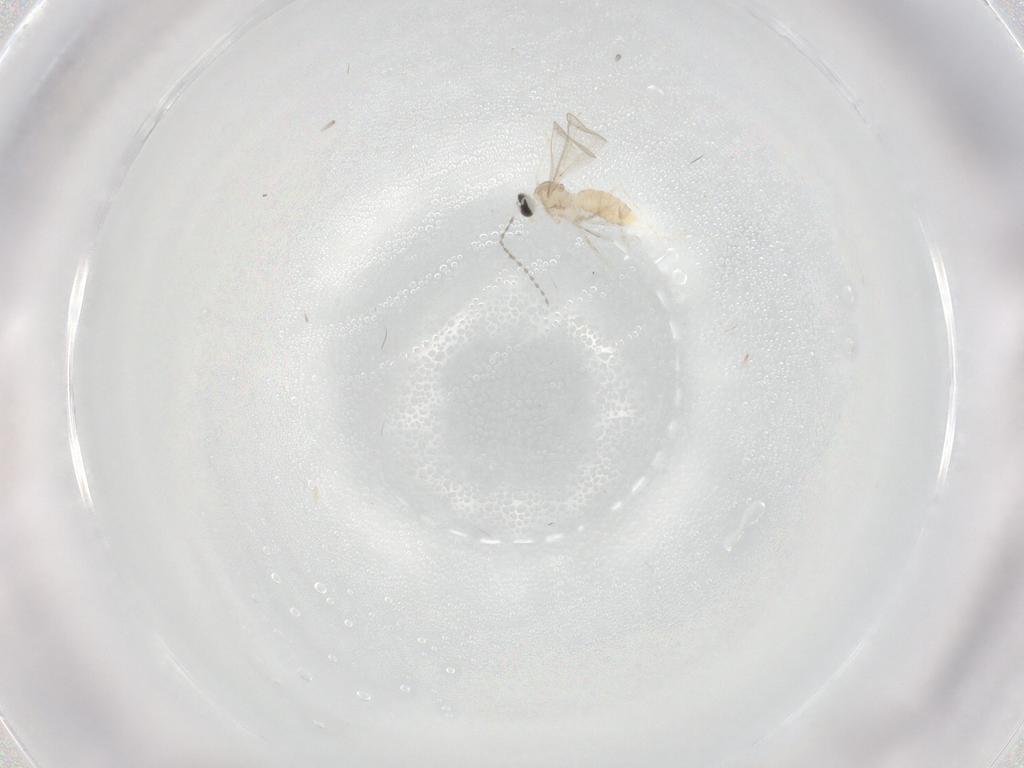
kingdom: Animalia
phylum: Arthropoda
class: Insecta
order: Diptera
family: Cecidomyiidae
